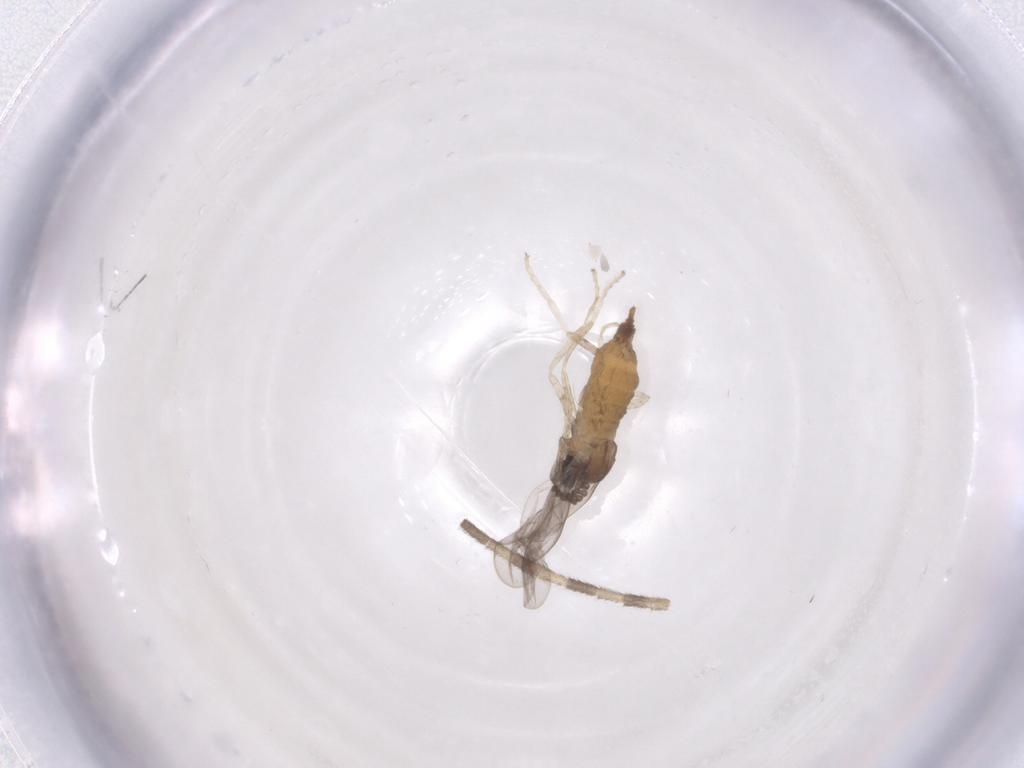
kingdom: Animalia
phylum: Arthropoda
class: Insecta
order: Diptera
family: Cecidomyiidae
